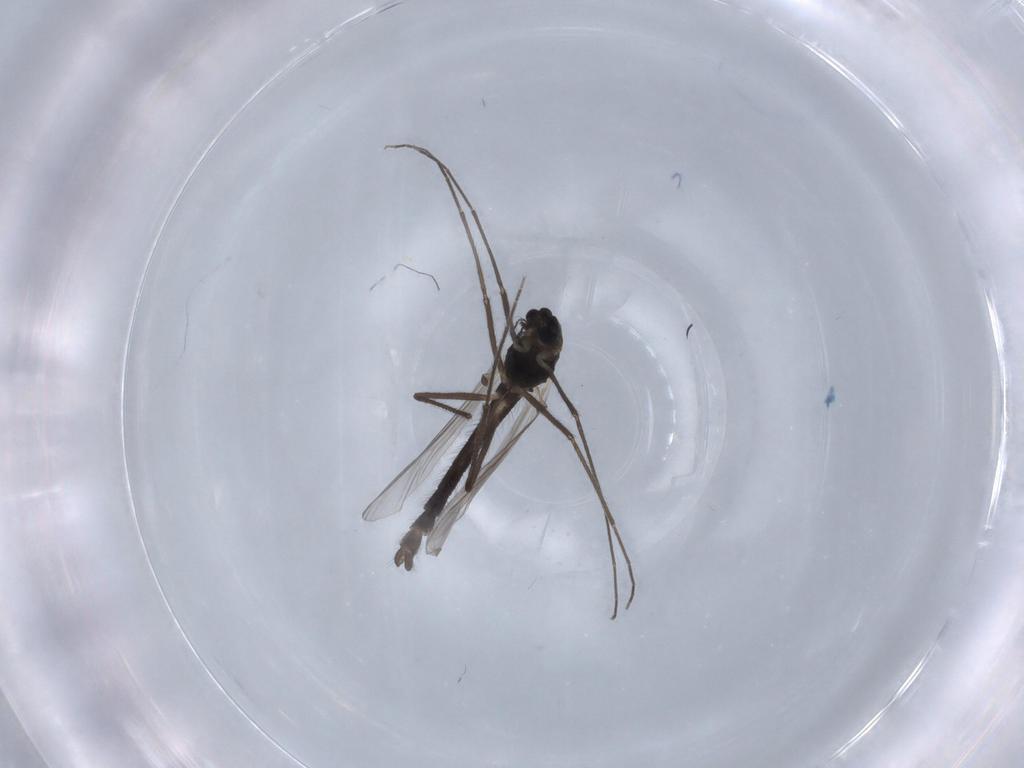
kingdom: Animalia
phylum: Arthropoda
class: Insecta
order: Diptera
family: Chironomidae
